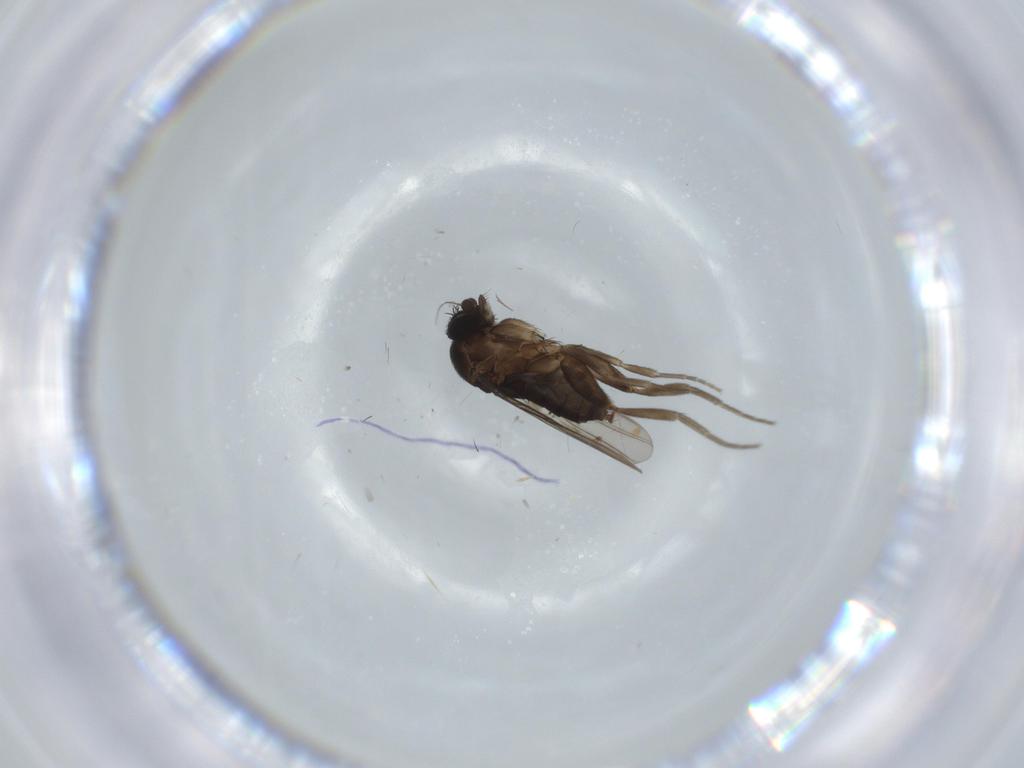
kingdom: Animalia
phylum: Arthropoda
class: Insecta
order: Diptera
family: Phoridae
